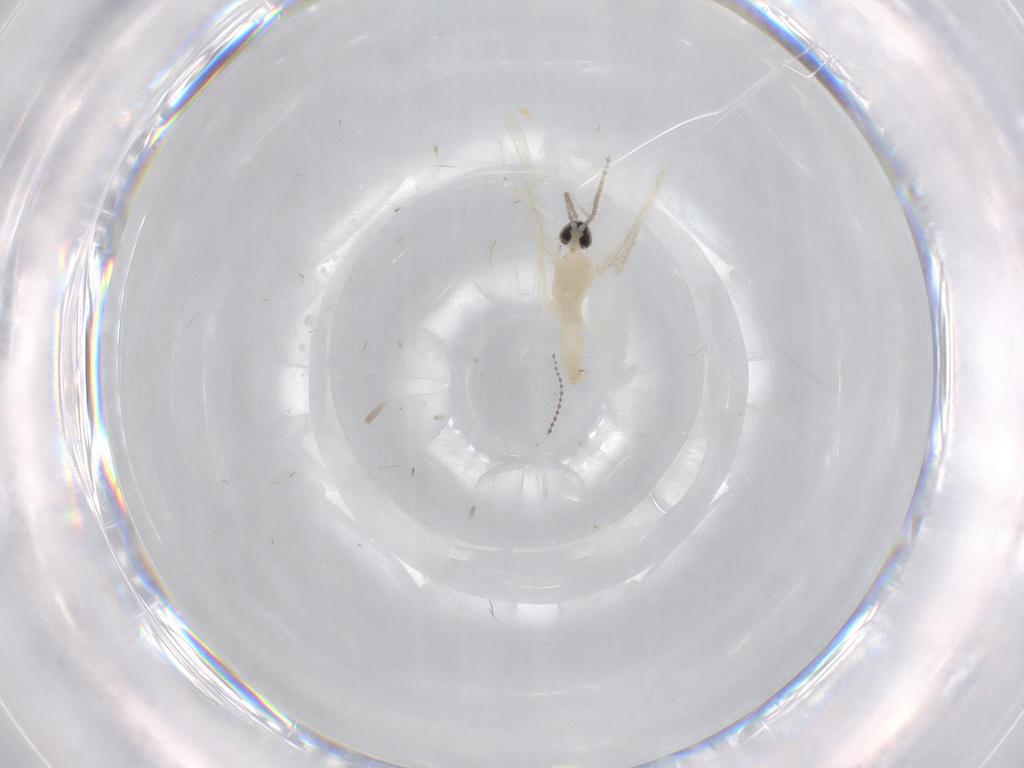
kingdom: Animalia
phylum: Arthropoda
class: Insecta
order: Diptera
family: Cecidomyiidae
